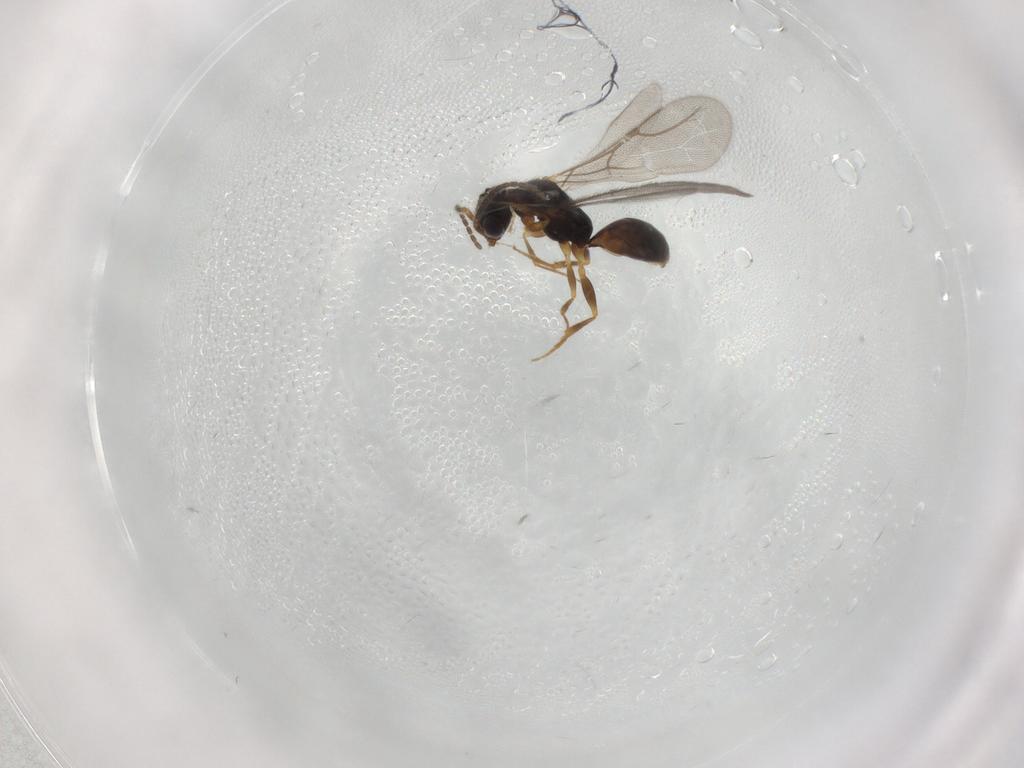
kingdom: Animalia
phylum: Arthropoda
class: Insecta
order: Hymenoptera
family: Bethylidae
